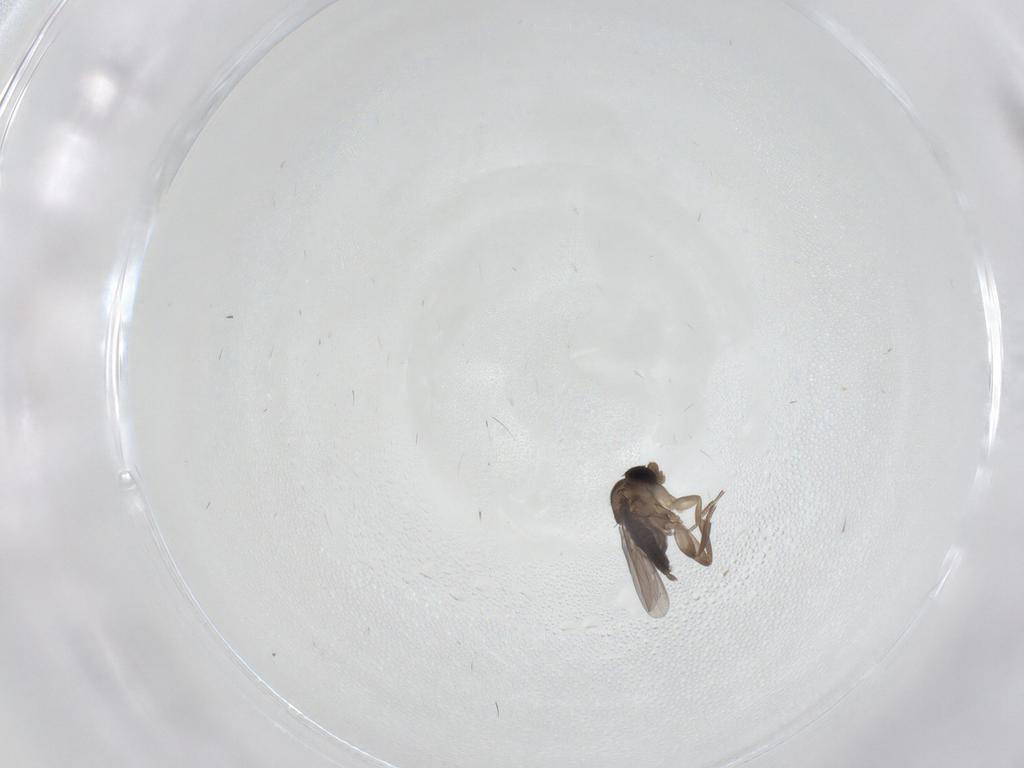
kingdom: Animalia
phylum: Arthropoda
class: Insecta
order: Diptera
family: Phoridae
